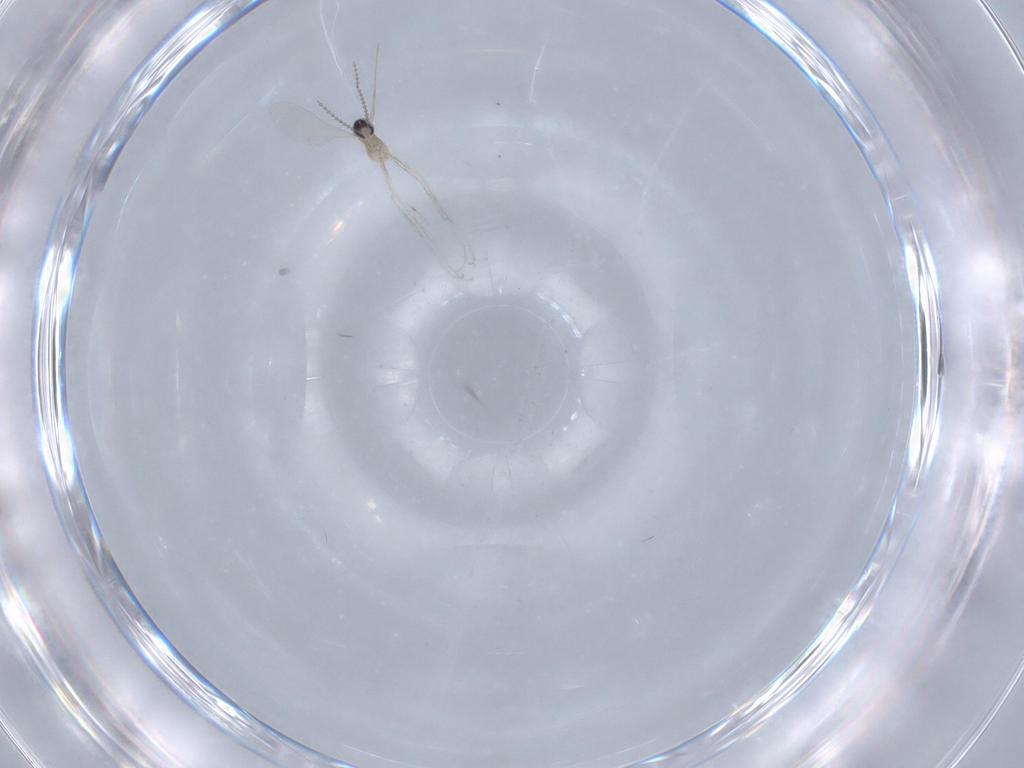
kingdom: Animalia
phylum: Arthropoda
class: Insecta
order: Diptera
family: Cecidomyiidae
